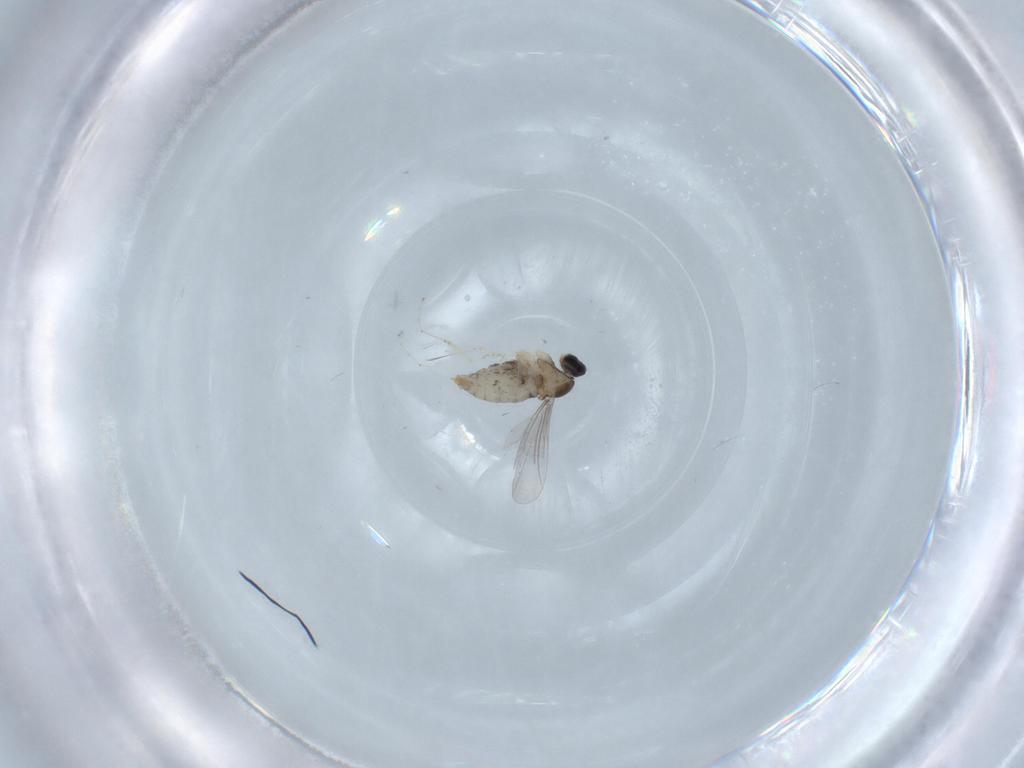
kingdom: Animalia
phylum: Arthropoda
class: Insecta
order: Diptera
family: Cecidomyiidae
